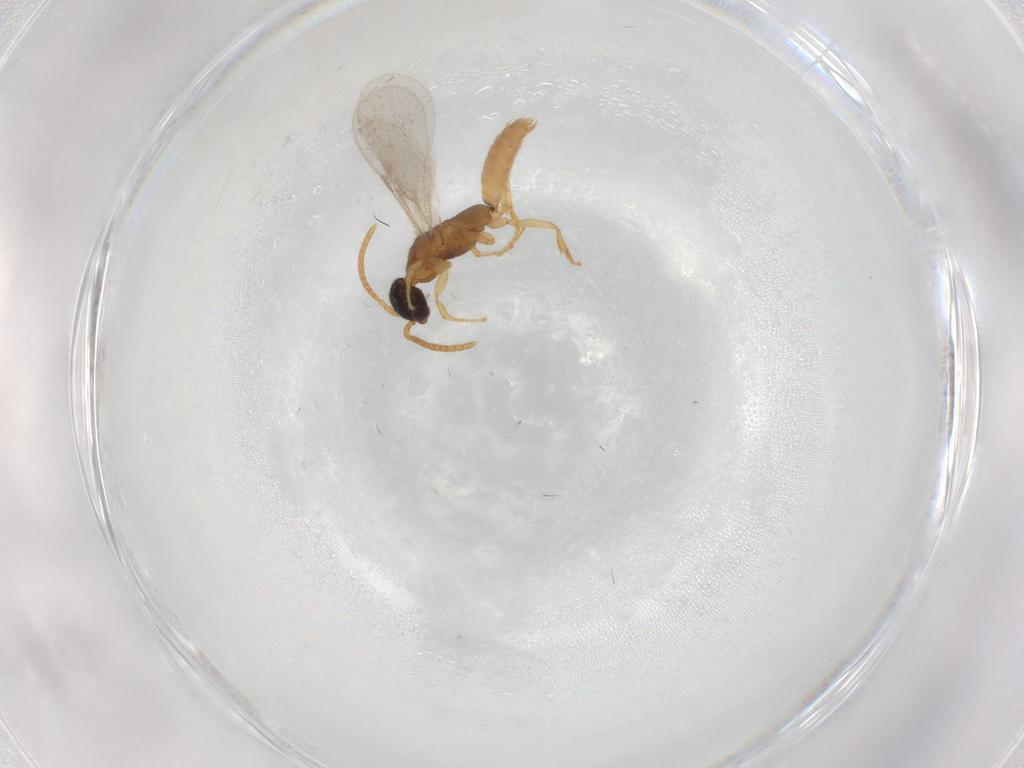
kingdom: Animalia
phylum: Arthropoda
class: Insecta
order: Hymenoptera
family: Bethylidae
